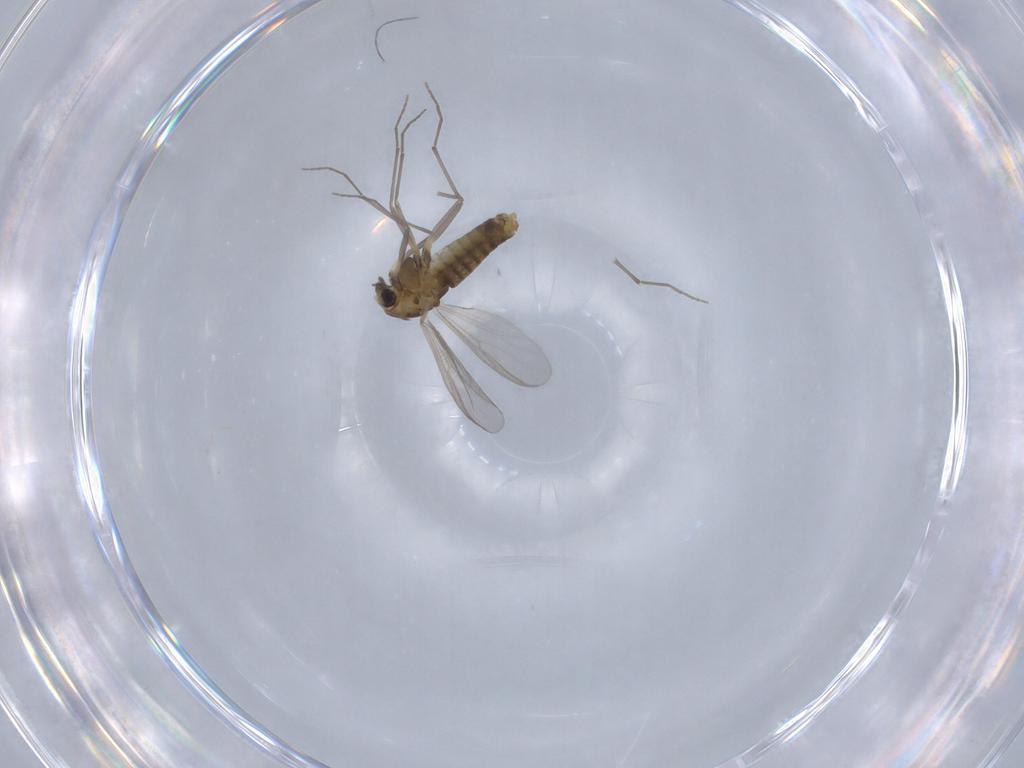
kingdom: Animalia
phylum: Arthropoda
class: Insecta
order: Diptera
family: Chironomidae
